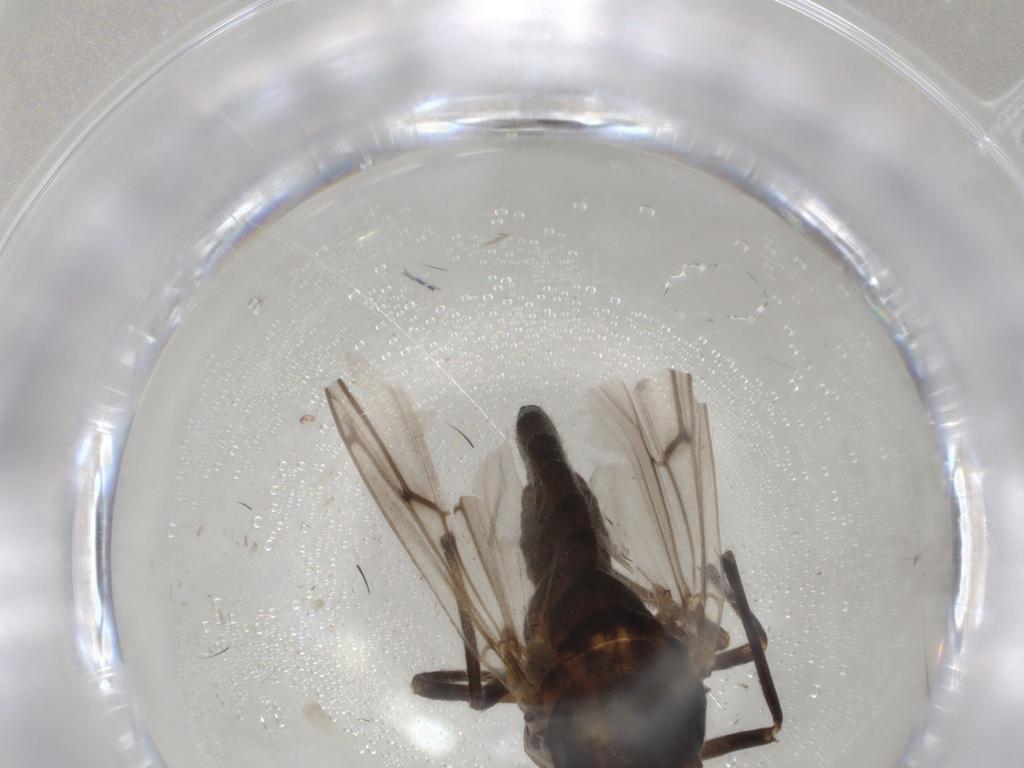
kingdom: Animalia
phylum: Arthropoda
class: Insecta
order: Diptera
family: Chironomidae
